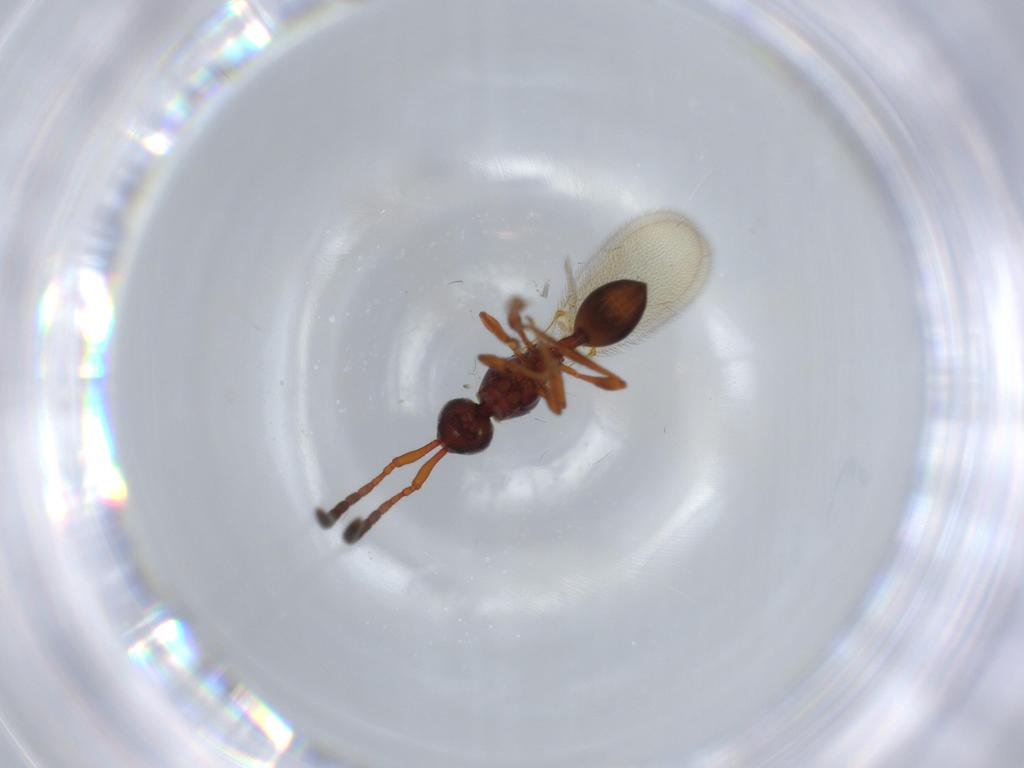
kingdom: Animalia
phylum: Arthropoda
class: Insecta
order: Hymenoptera
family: Diapriidae
